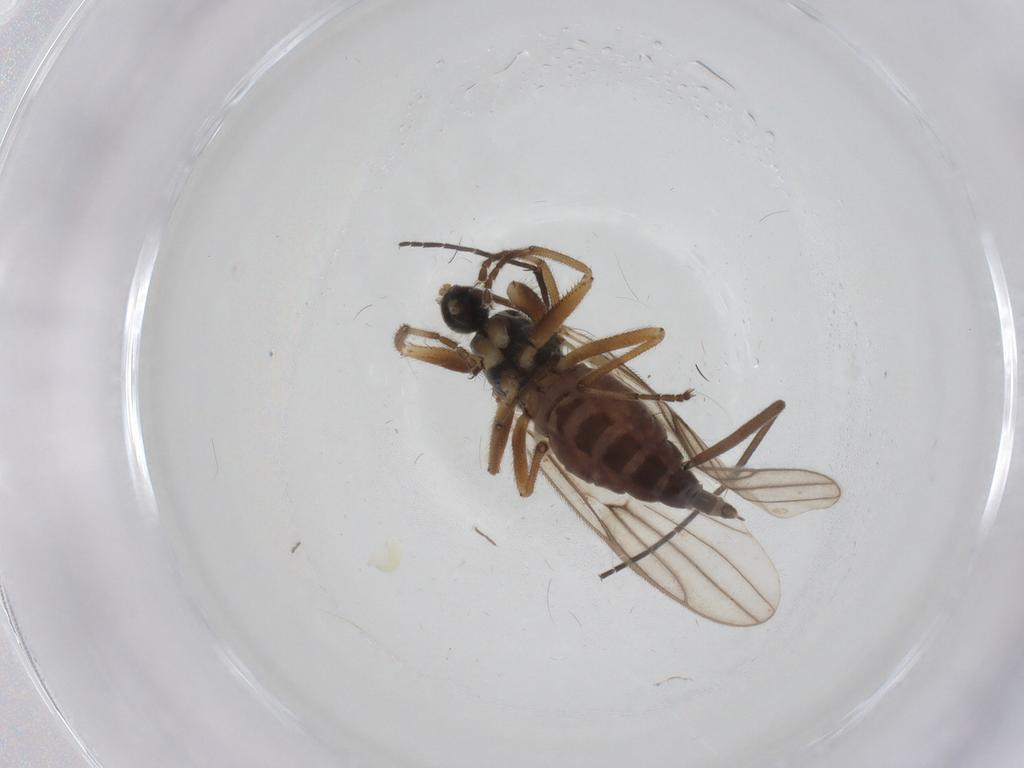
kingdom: Animalia
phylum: Arthropoda
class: Insecta
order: Diptera
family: Hybotidae
